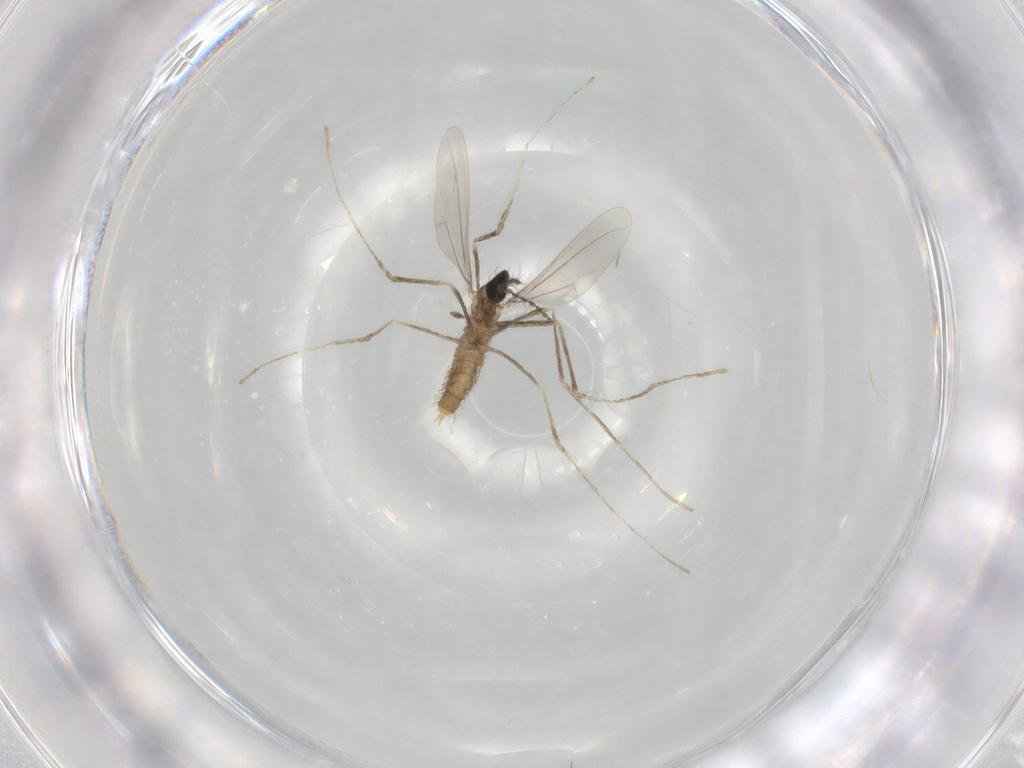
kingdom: Animalia
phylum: Arthropoda
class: Insecta
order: Diptera
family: Cecidomyiidae
